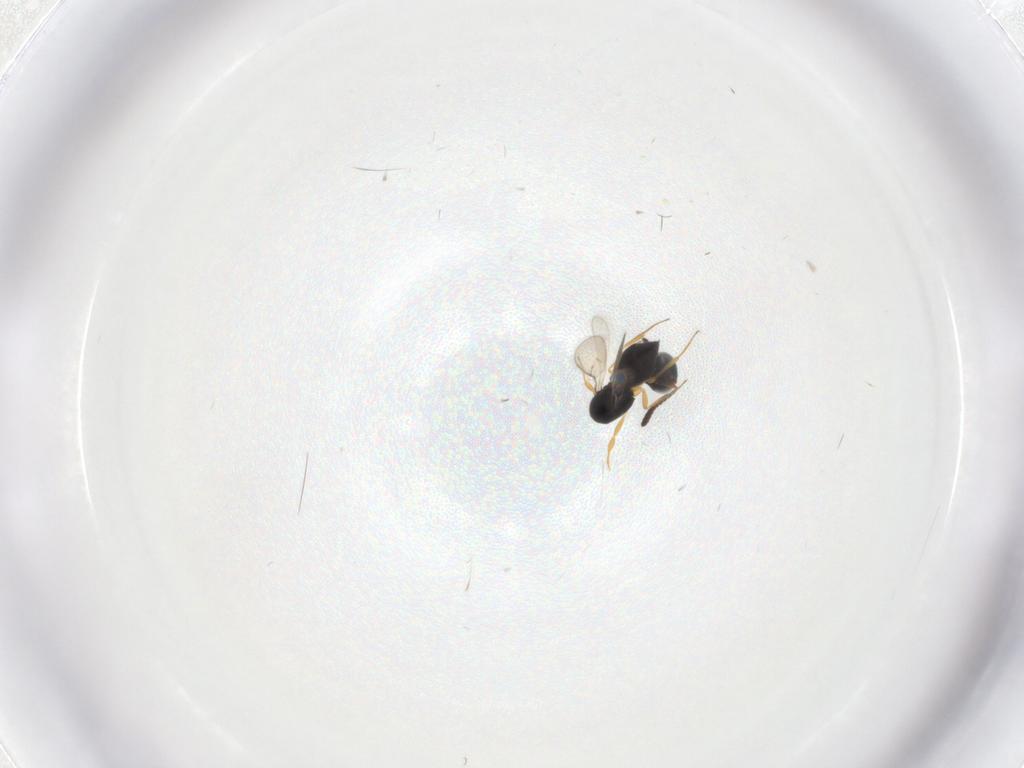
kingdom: Animalia
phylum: Arthropoda
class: Insecta
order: Hymenoptera
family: Scelionidae
